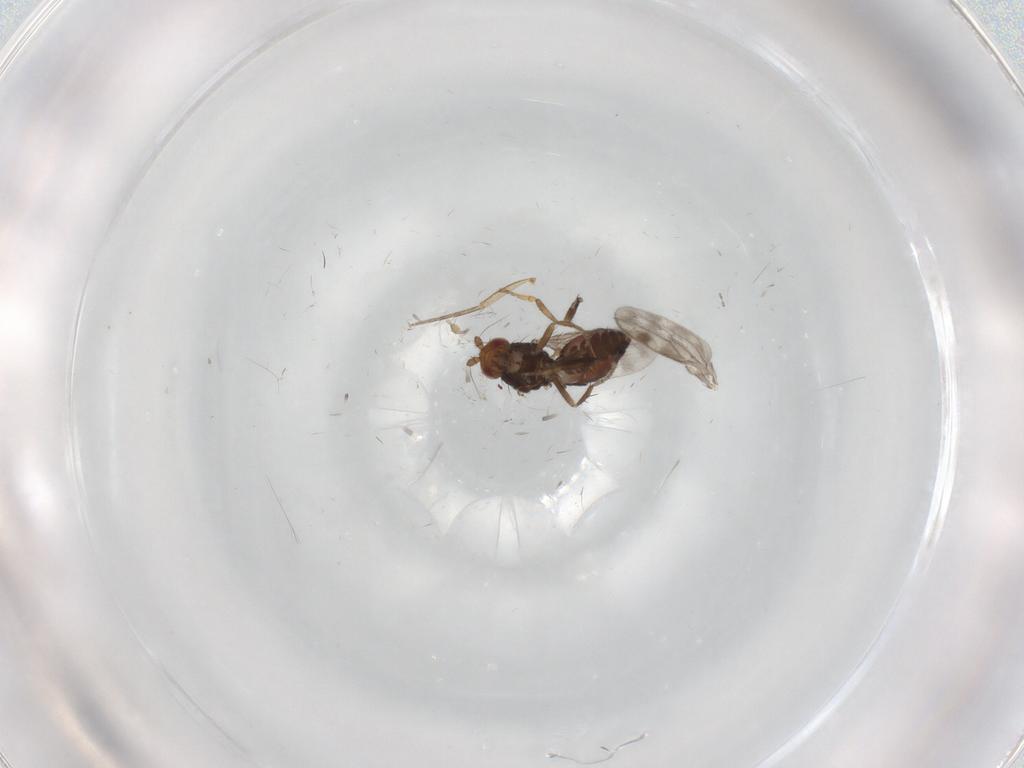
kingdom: Animalia
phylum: Arthropoda
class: Insecta
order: Diptera
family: Sphaeroceridae
